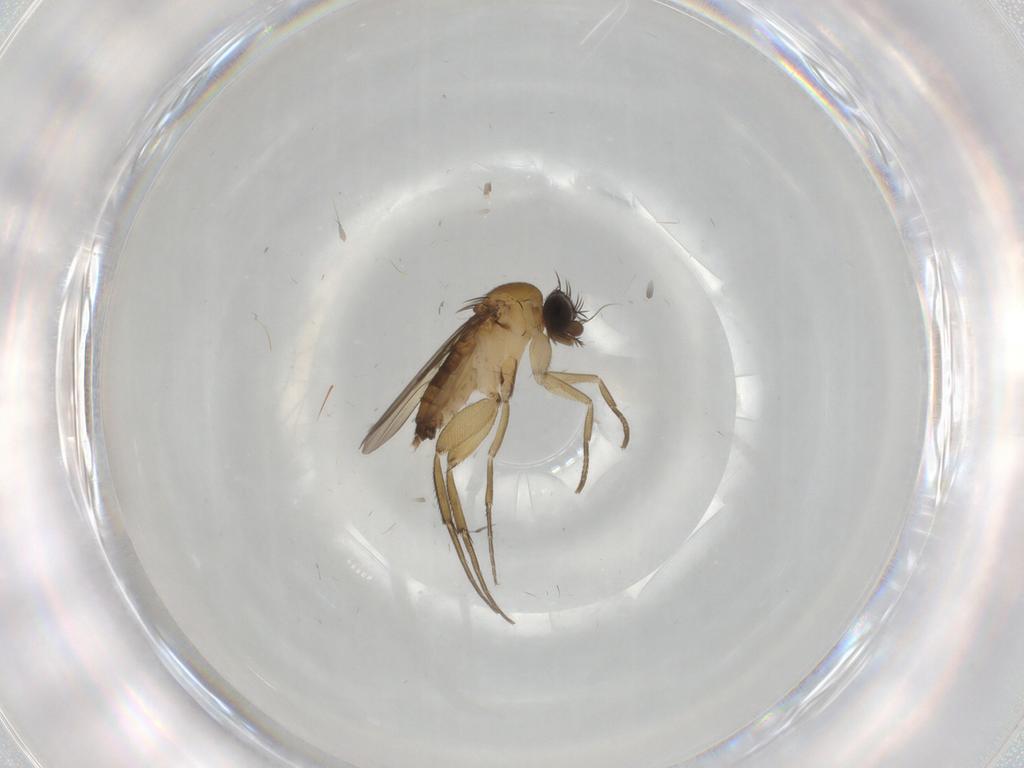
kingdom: Animalia
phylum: Arthropoda
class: Insecta
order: Diptera
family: Phoridae
